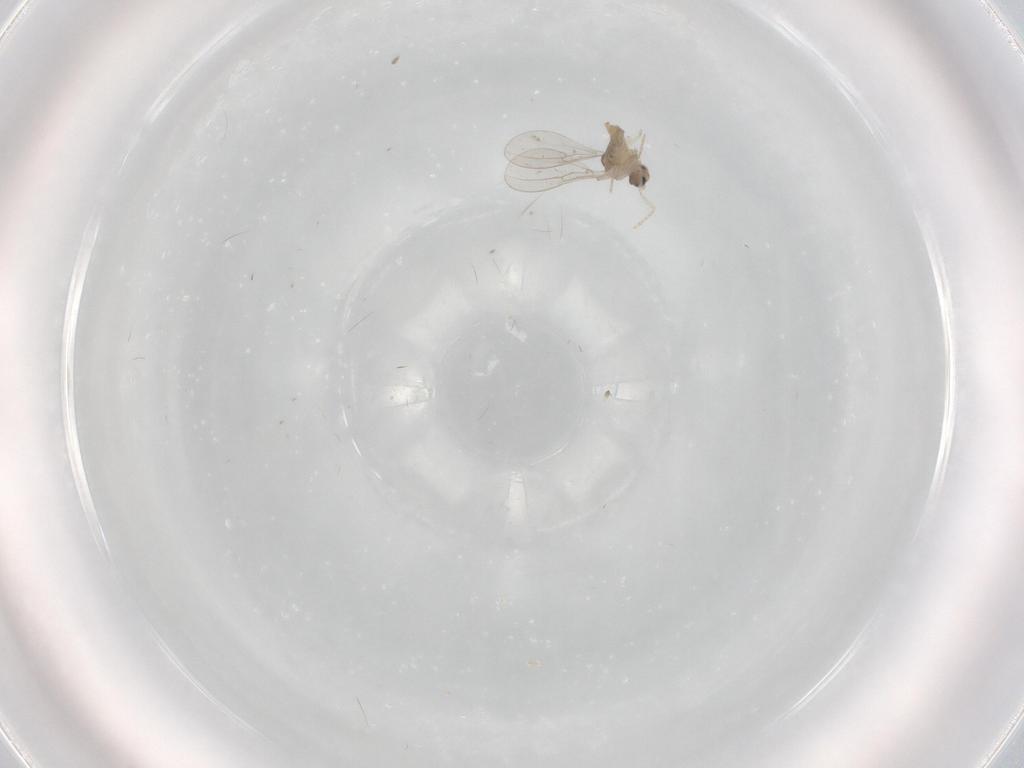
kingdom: Animalia
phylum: Arthropoda
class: Insecta
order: Diptera
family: Cecidomyiidae
